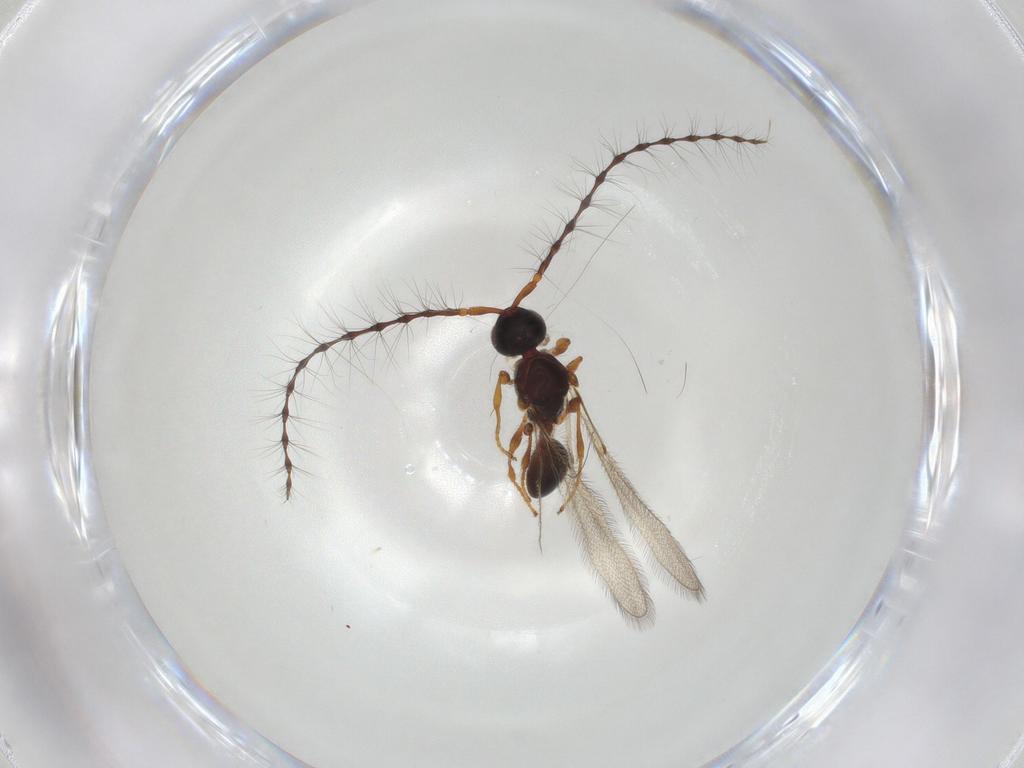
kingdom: Animalia
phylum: Arthropoda
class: Insecta
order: Hymenoptera
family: Diapriidae
